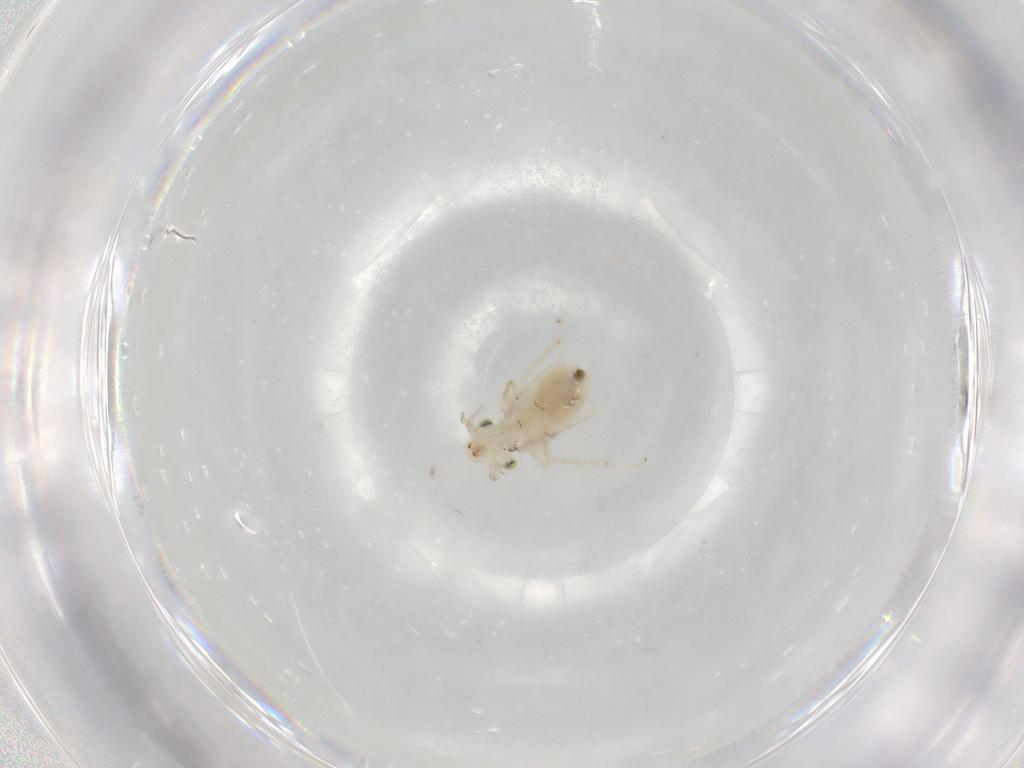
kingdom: Animalia
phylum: Arthropoda
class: Insecta
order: Psocodea
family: Lepidopsocidae
